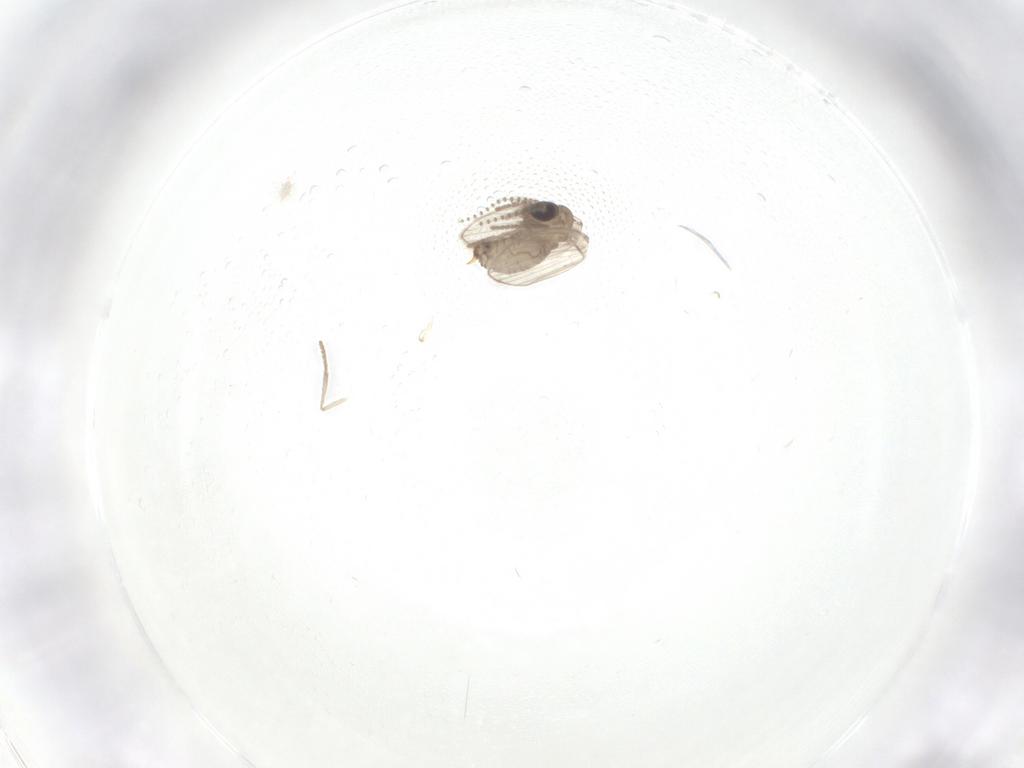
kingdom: Animalia
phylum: Arthropoda
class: Insecta
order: Diptera
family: Psychodidae
